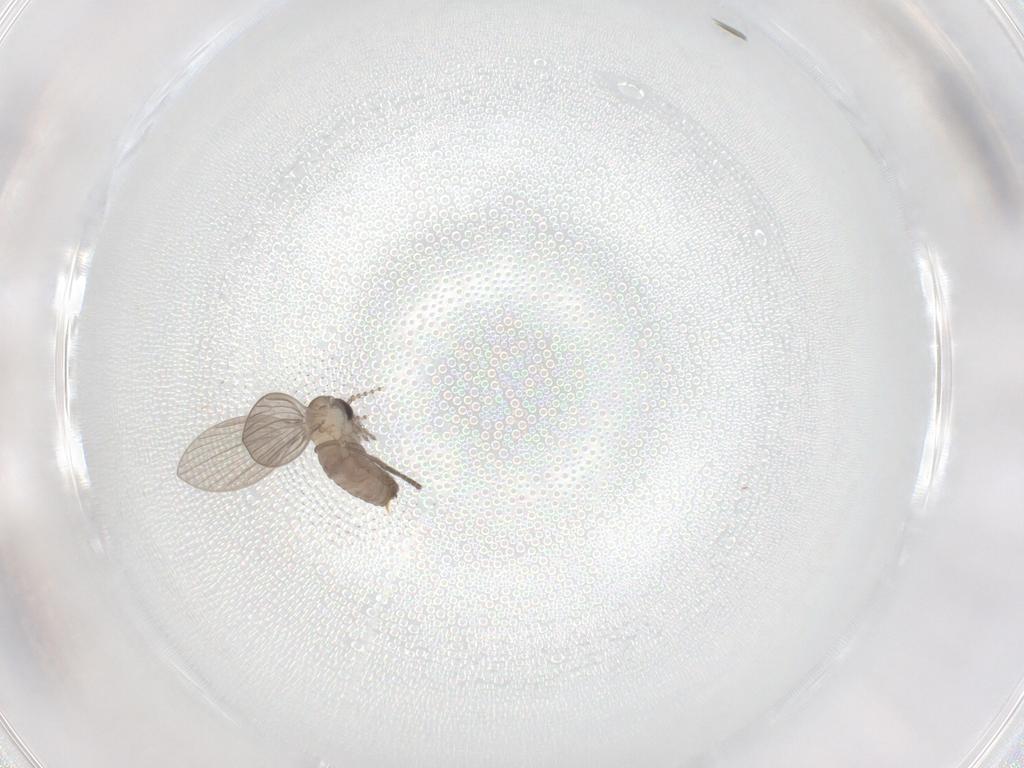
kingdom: Animalia
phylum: Arthropoda
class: Insecta
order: Diptera
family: Psychodidae
